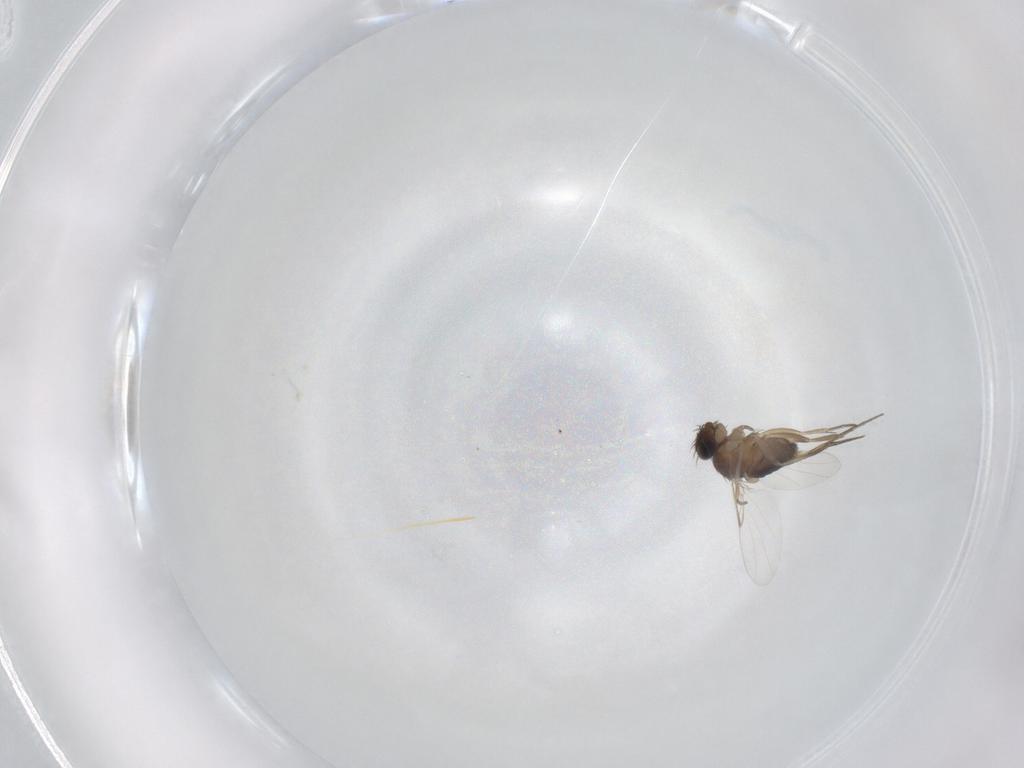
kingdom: Animalia
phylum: Arthropoda
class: Insecta
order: Diptera
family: Phoridae
